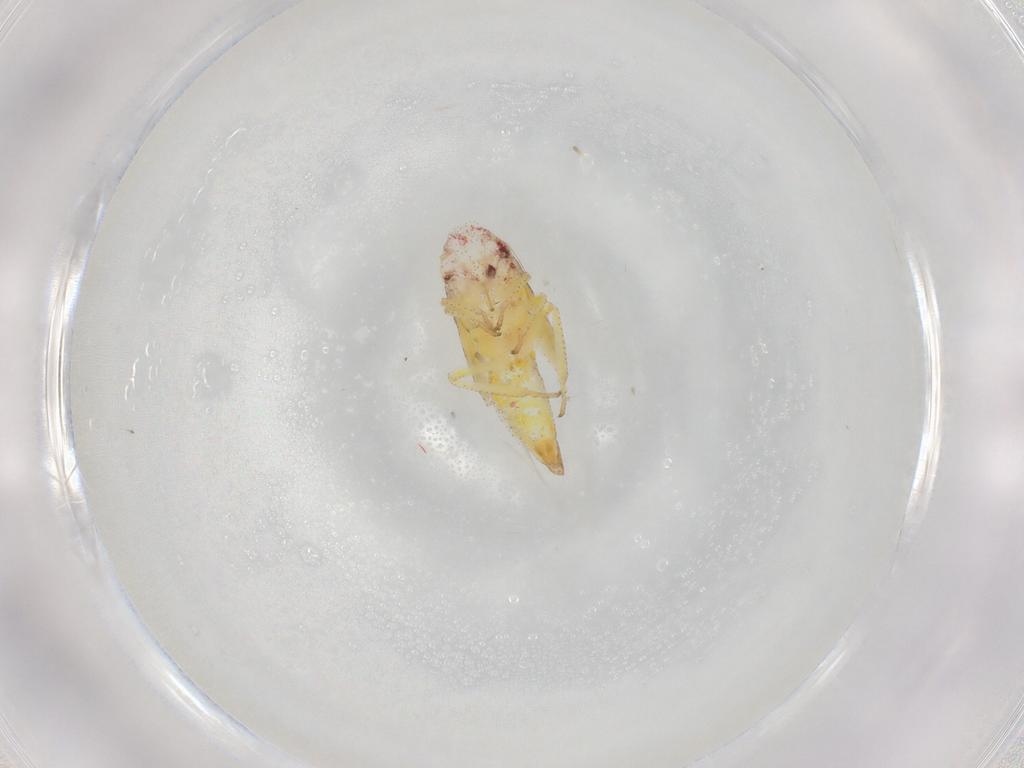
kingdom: Animalia
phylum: Arthropoda
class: Insecta
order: Hemiptera
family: Cicadellidae
